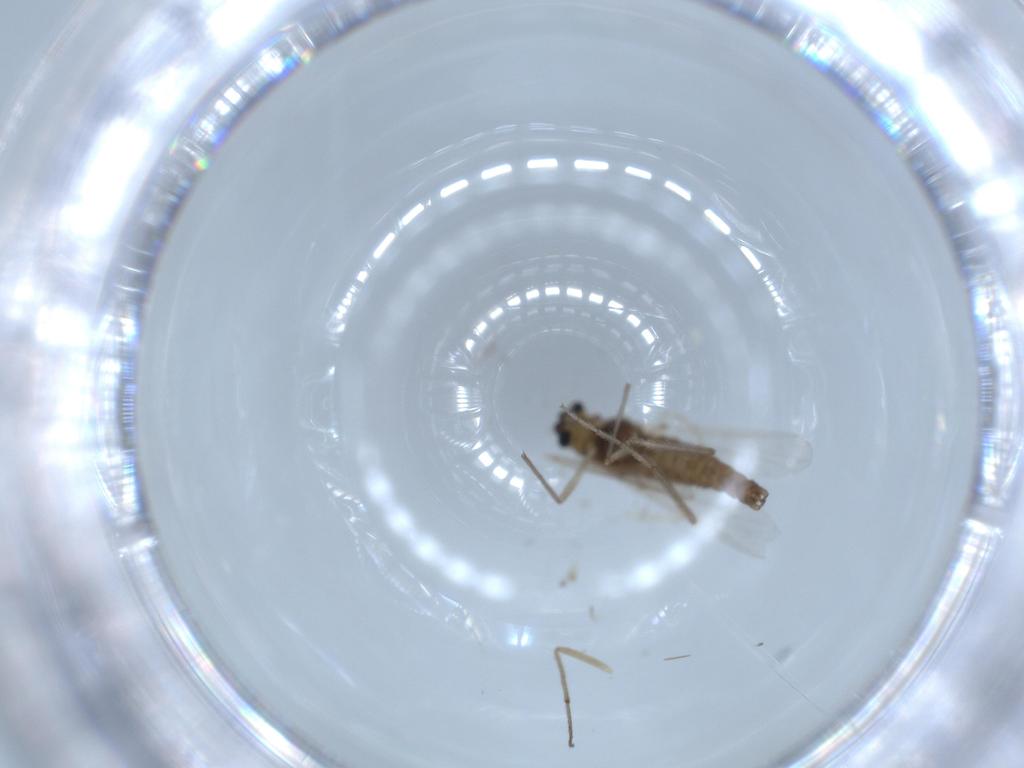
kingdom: Animalia
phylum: Arthropoda
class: Insecta
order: Diptera
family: Chironomidae
